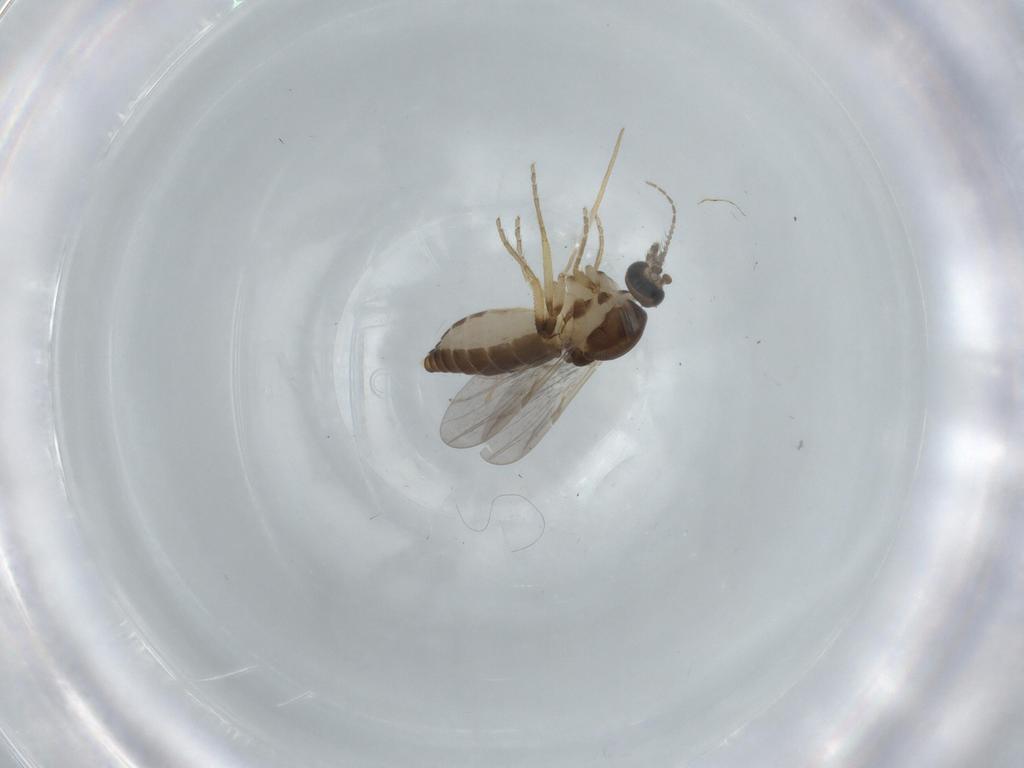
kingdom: Animalia
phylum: Arthropoda
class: Insecta
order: Diptera
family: Ceratopogonidae
